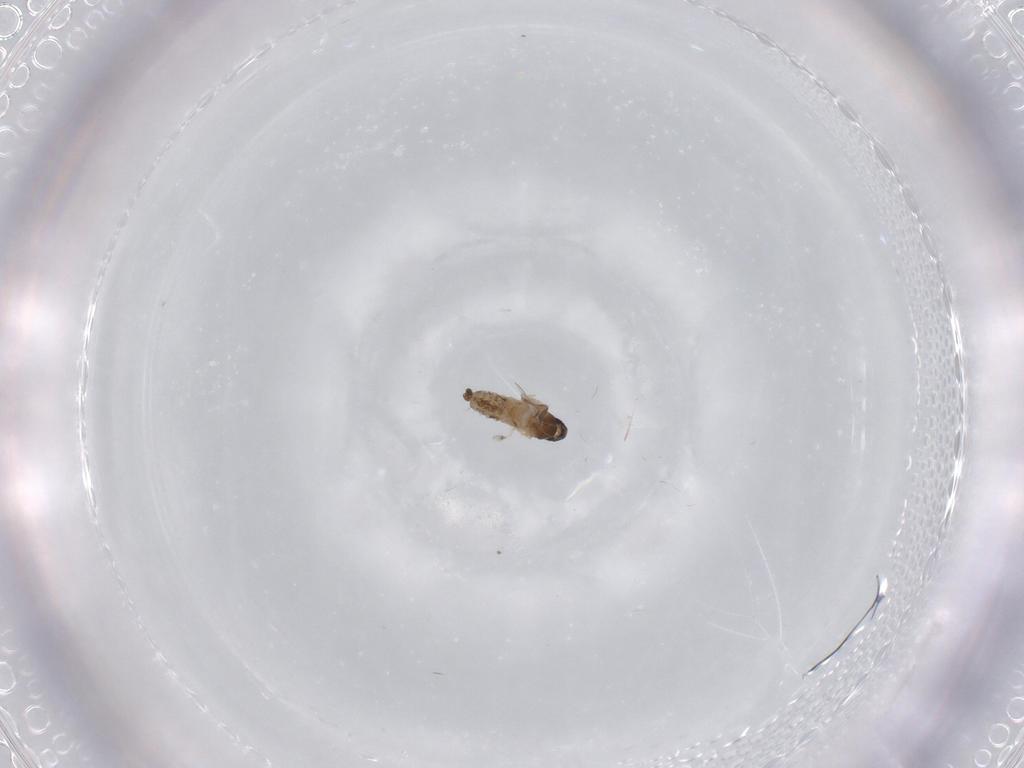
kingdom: Animalia
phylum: Arthropoda
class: Insecta
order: Diptera
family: Cecidomyiidae
